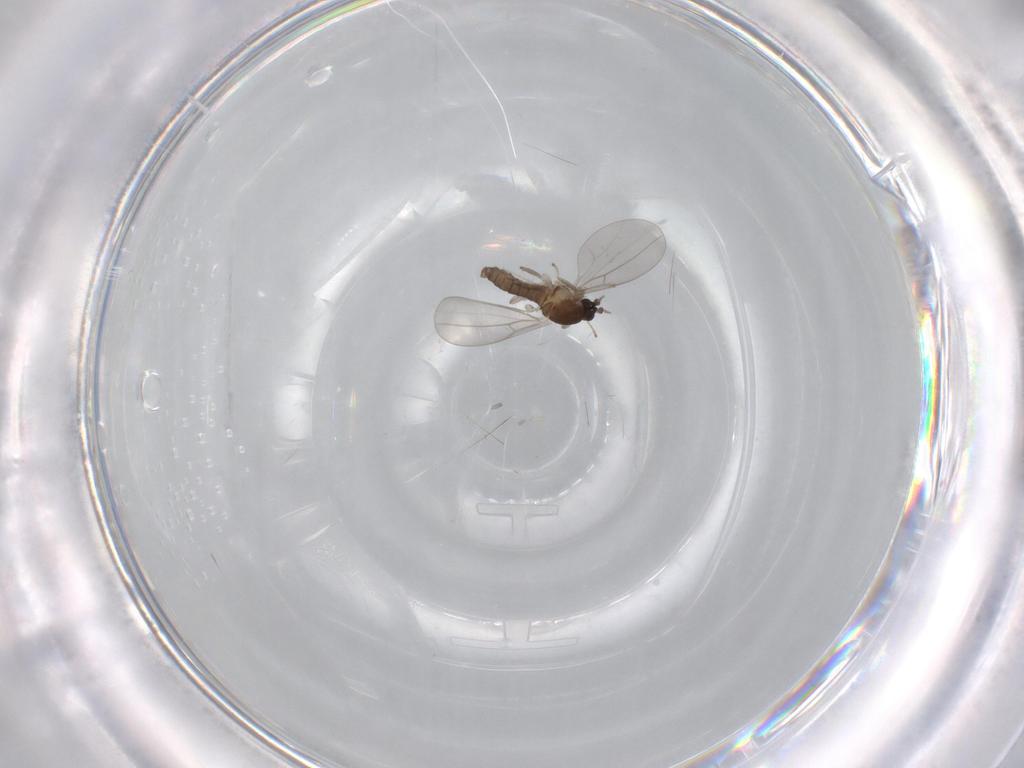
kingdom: Animalia
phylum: Arthropoda
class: Insecta
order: Diptera
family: Cecidomyiidae
